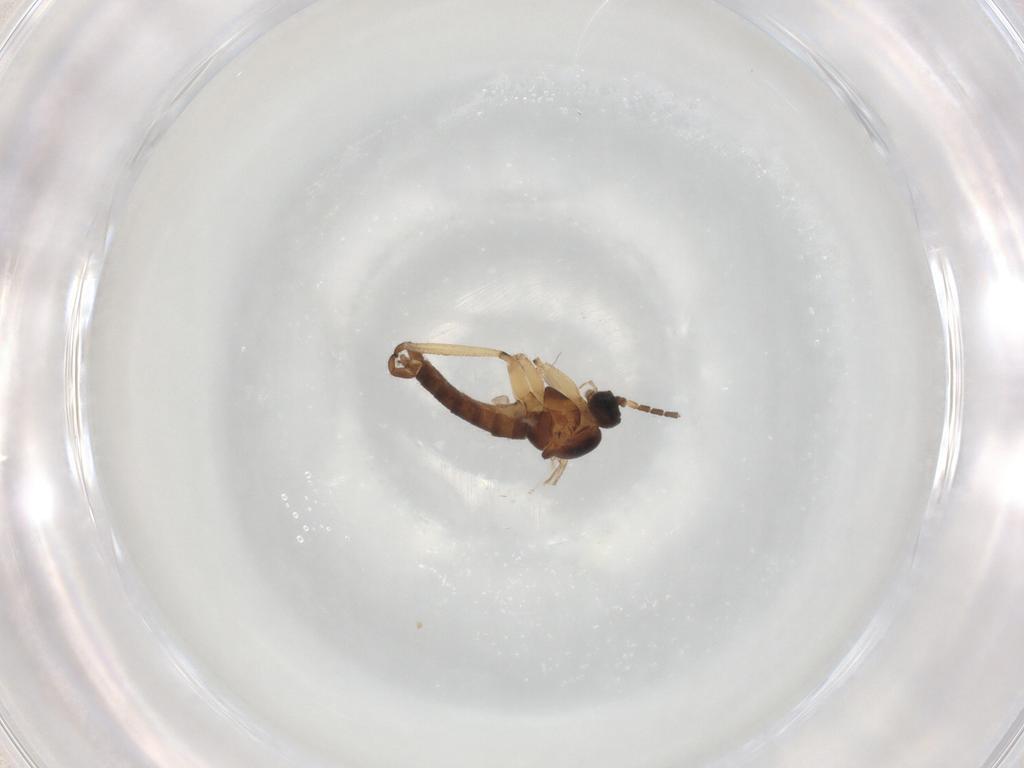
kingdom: Animalia
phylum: Arthropoda
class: Insecta
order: Diptera
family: Sciaridae
